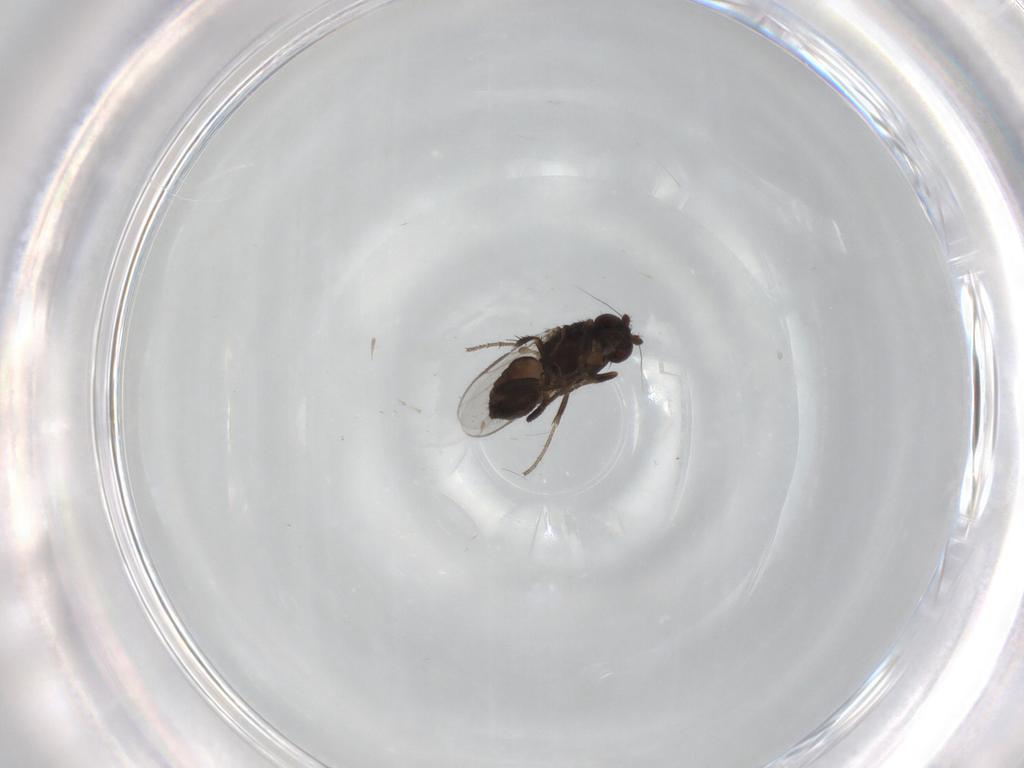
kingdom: Animalia
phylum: Arthropoda
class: Insecta
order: Diptera
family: Sphaeroceridae
